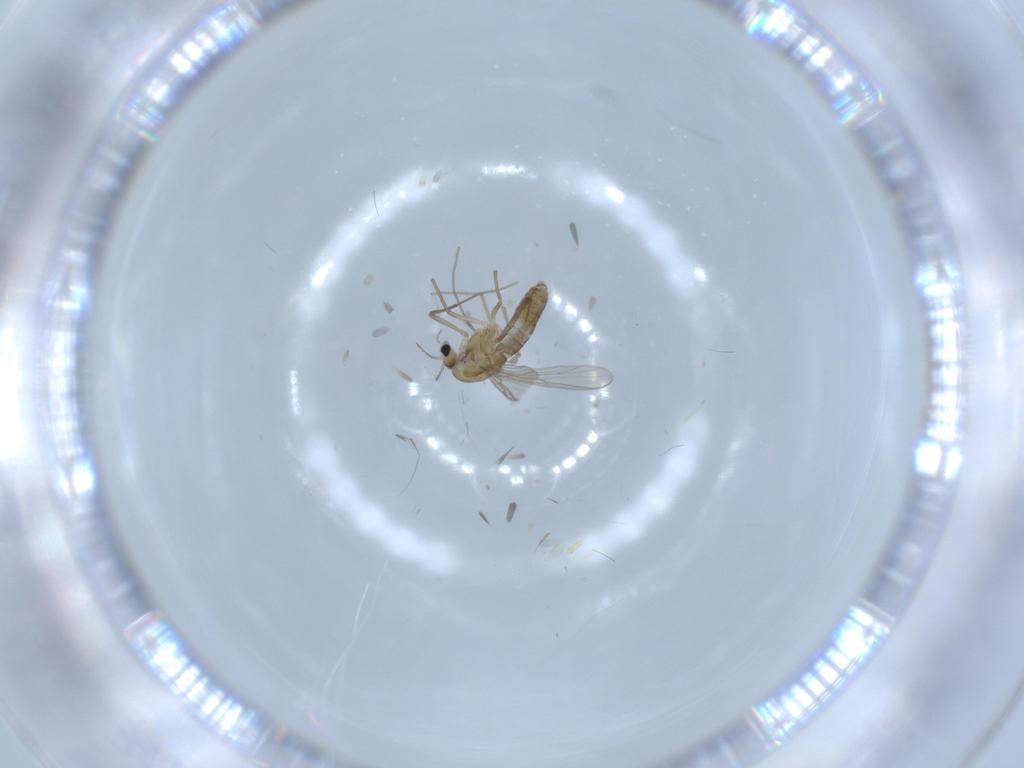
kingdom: Animalia
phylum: Arthropoda
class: Insecta
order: Diptera
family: Chironomidae
